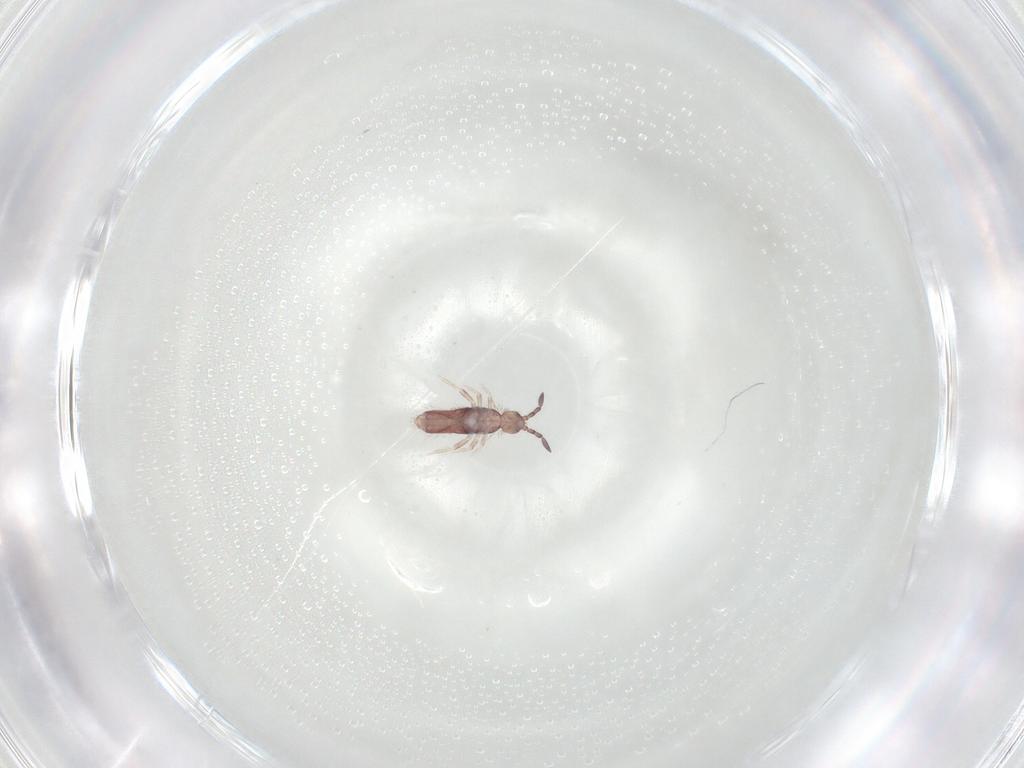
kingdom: Animalia
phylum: Arthropoda
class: Collembola
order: Entomobryomorpha
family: Entomobryidae
